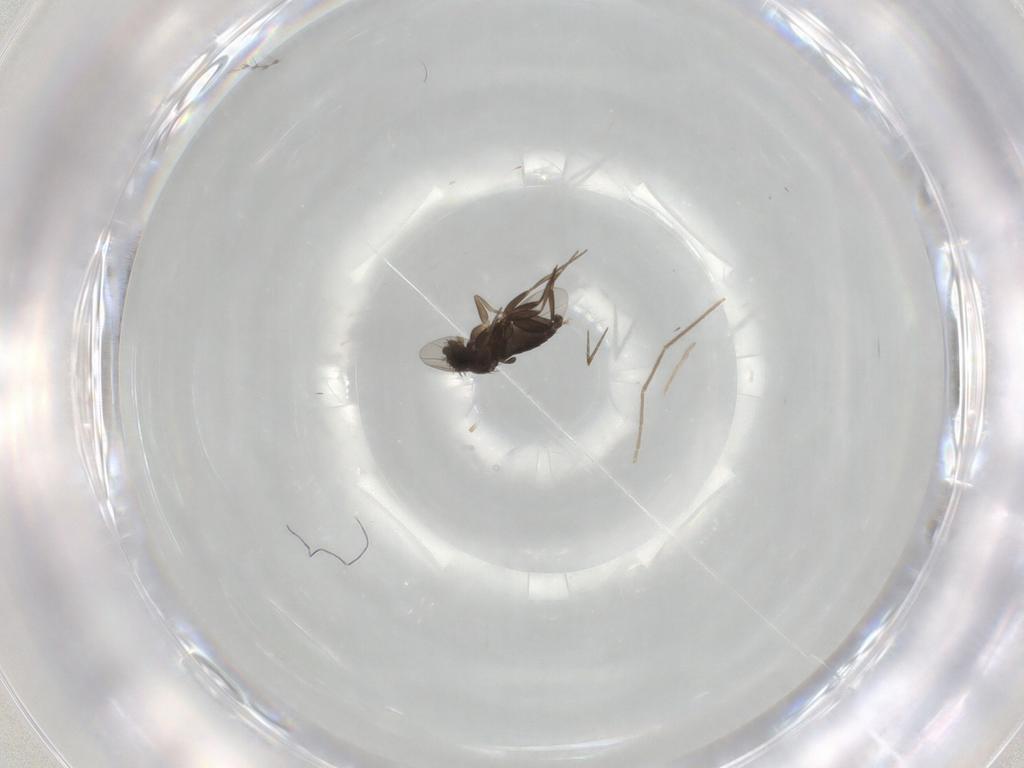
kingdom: Animalia
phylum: Arthropoda
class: Insecta
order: Diptera
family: Phoridae
